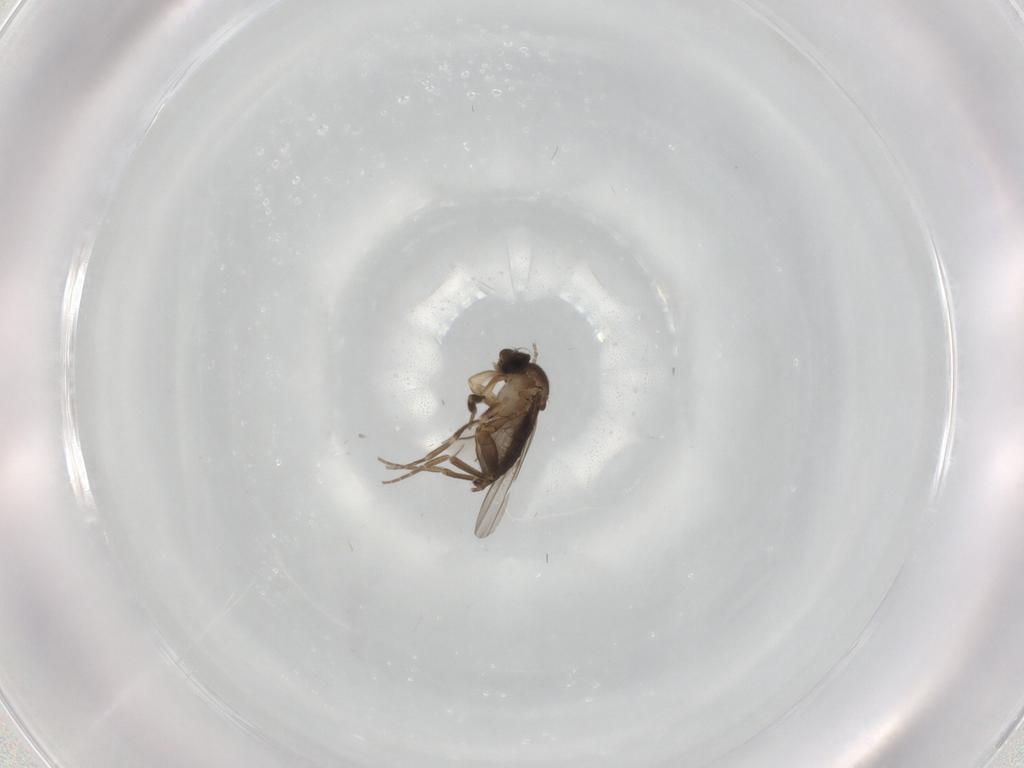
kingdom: Animalia
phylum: Arthropoda
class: Insecta
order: Diptera
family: Phoridae
